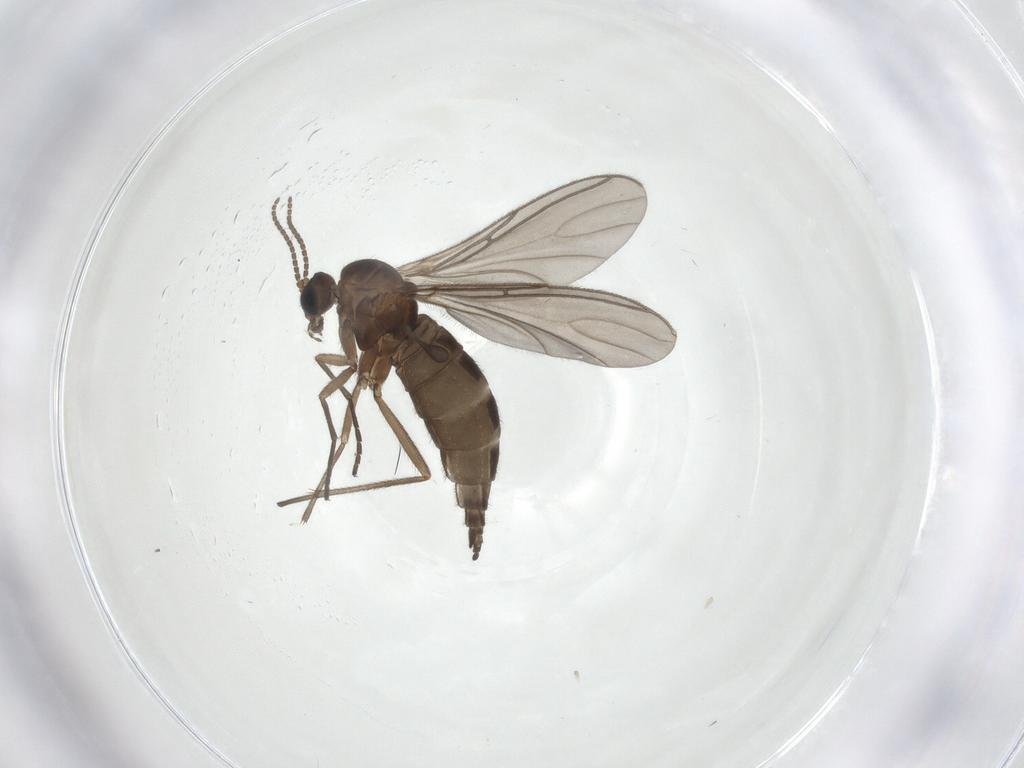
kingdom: Animalia
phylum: Arthropoda
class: Insecta
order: Diptera
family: Sciaridae
